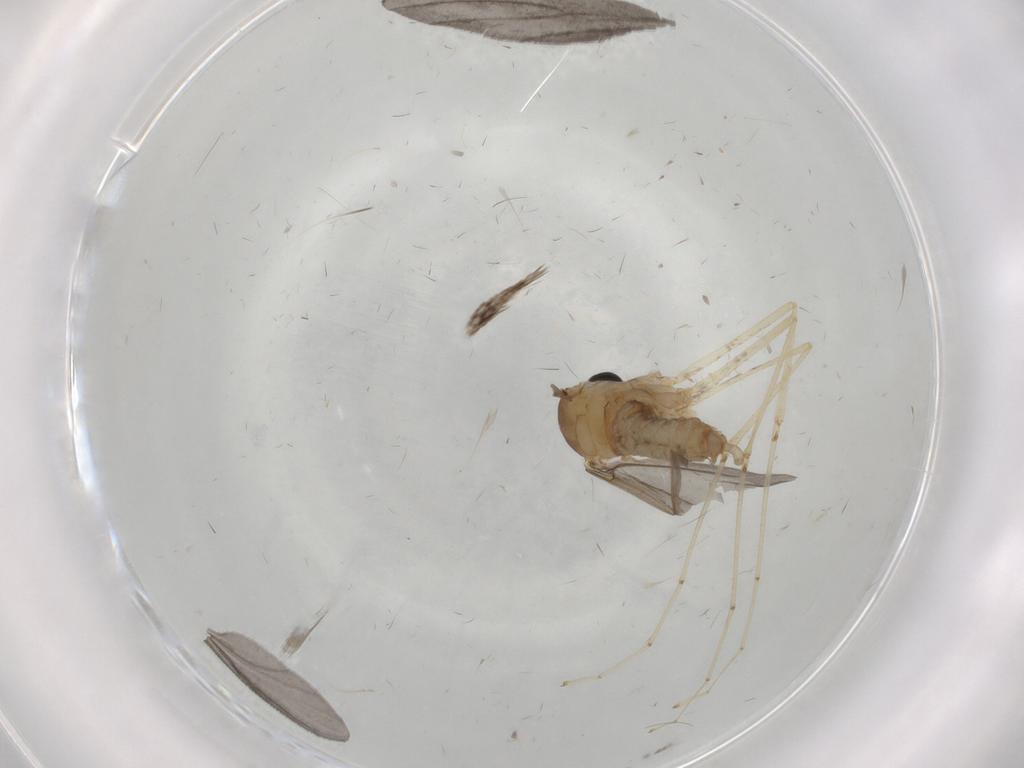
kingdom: Animalia
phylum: Arthropoda
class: Insecta
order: Diptera
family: Cecidomyiidae
